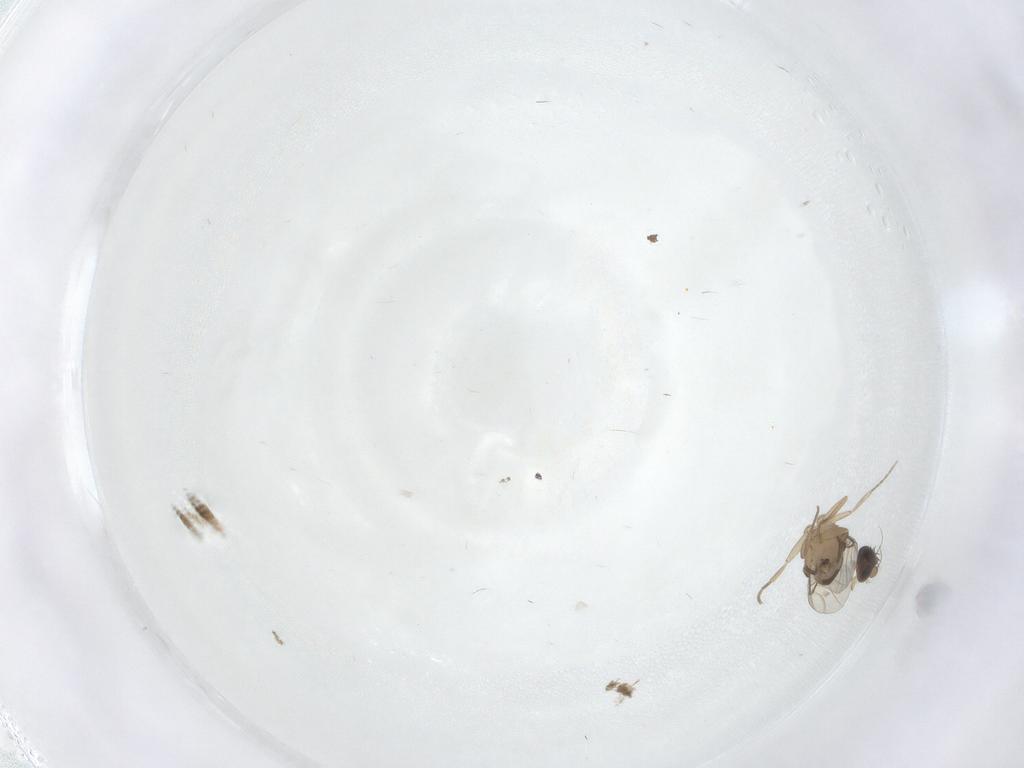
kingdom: Animalia
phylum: Arthropoda
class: Insecta
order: Diptera
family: Phoridae
